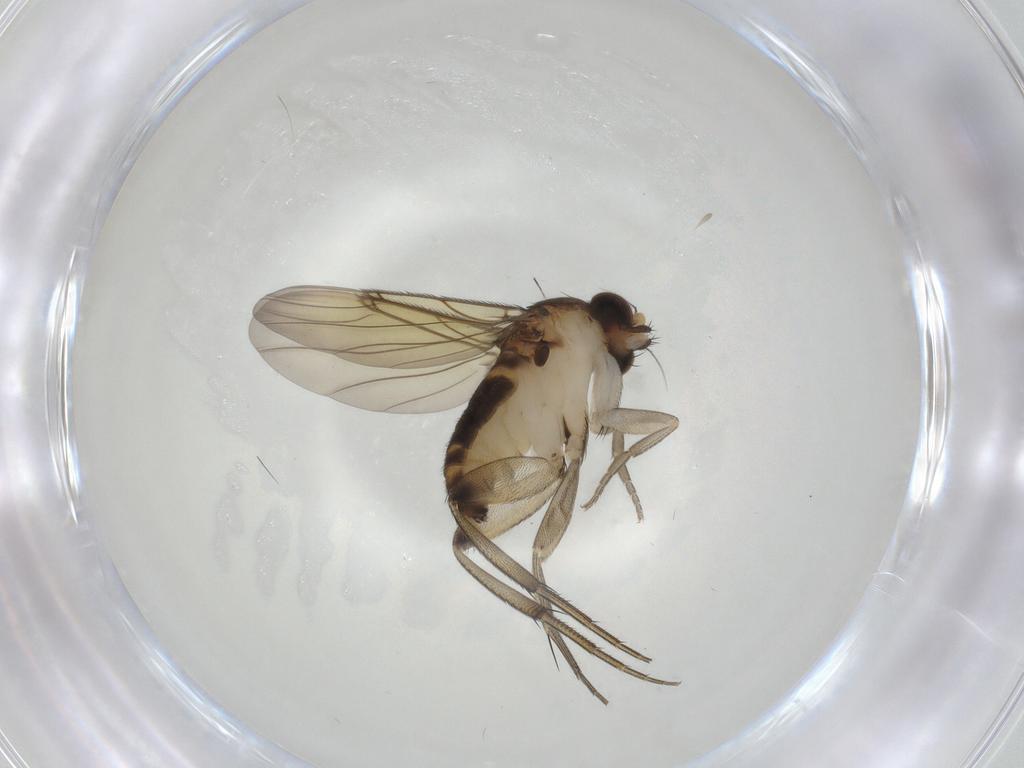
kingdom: Animalia
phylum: Arthropoda
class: Insecta
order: Diptera
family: Phoridae
